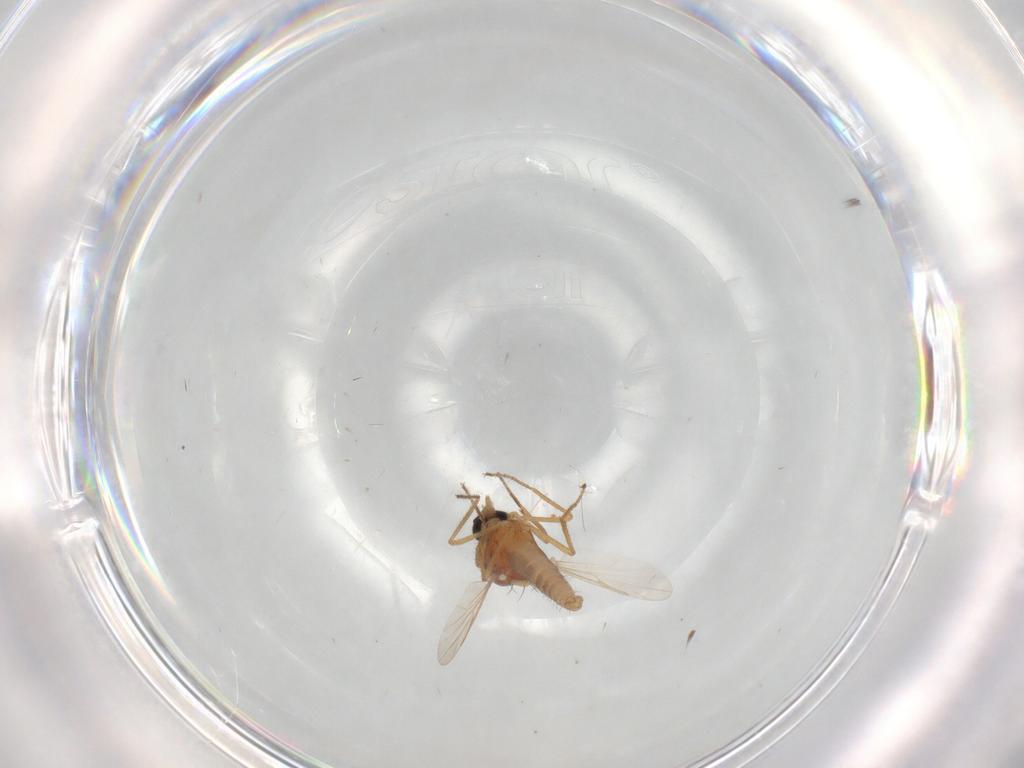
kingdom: Animalia
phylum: Arthropoda
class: Insecta
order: Diptera
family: Ceratopogonidae
